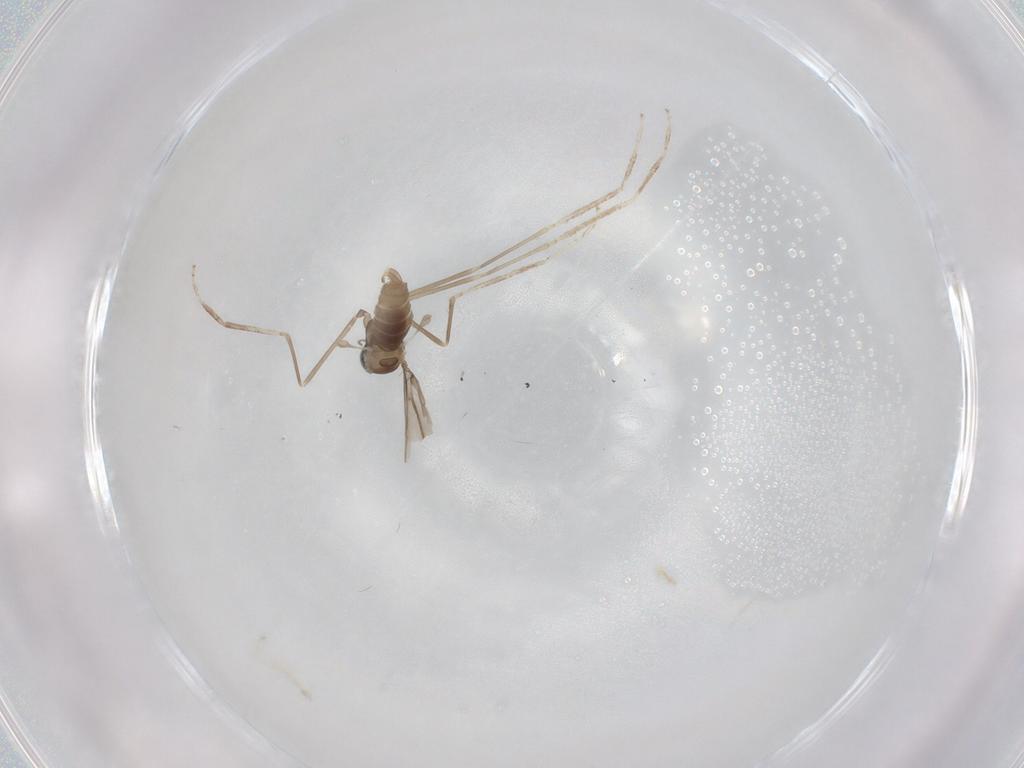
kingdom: Animalia
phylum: Arthropoda
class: Insecta
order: Diptera
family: Cecidomyiidae
